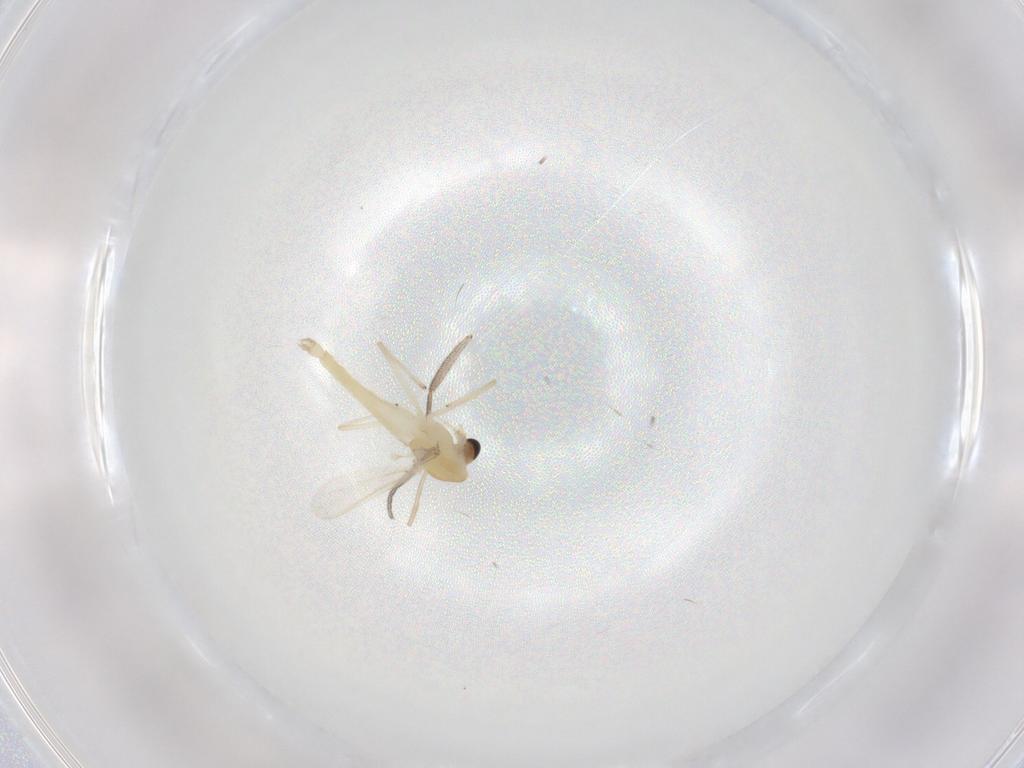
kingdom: Animalia
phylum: Arthropoda
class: Insecta
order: Diptera
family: Chironomidae
